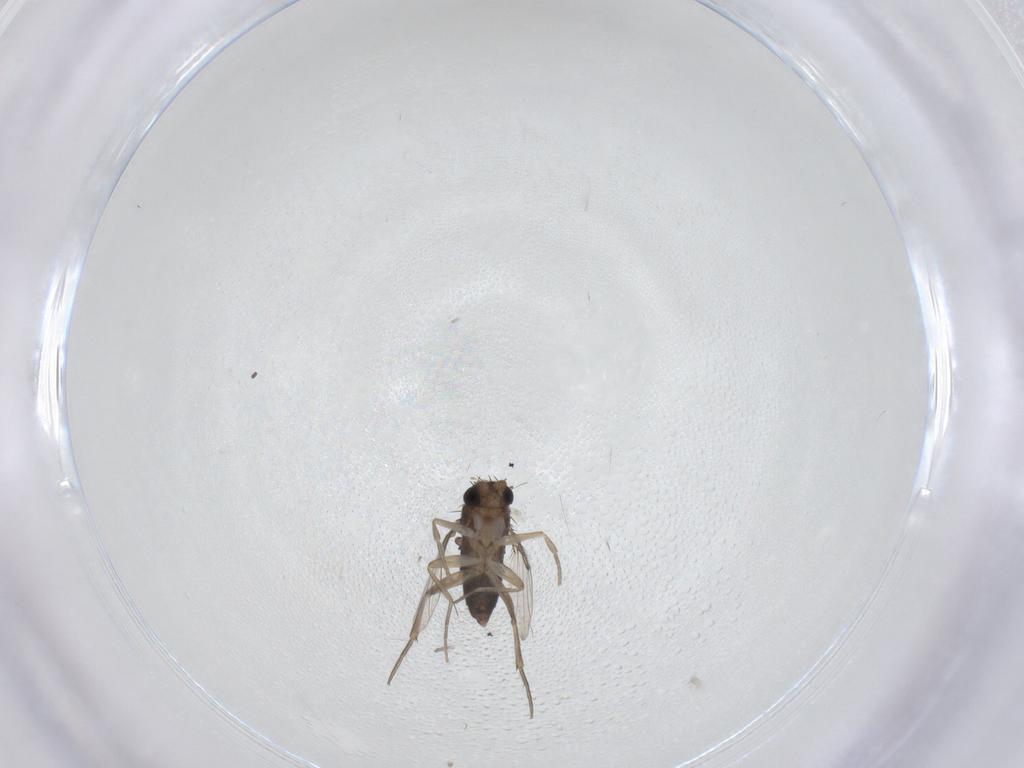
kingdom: Animalia
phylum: Arthropoda
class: Insecta
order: Diptera
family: Phoridae
